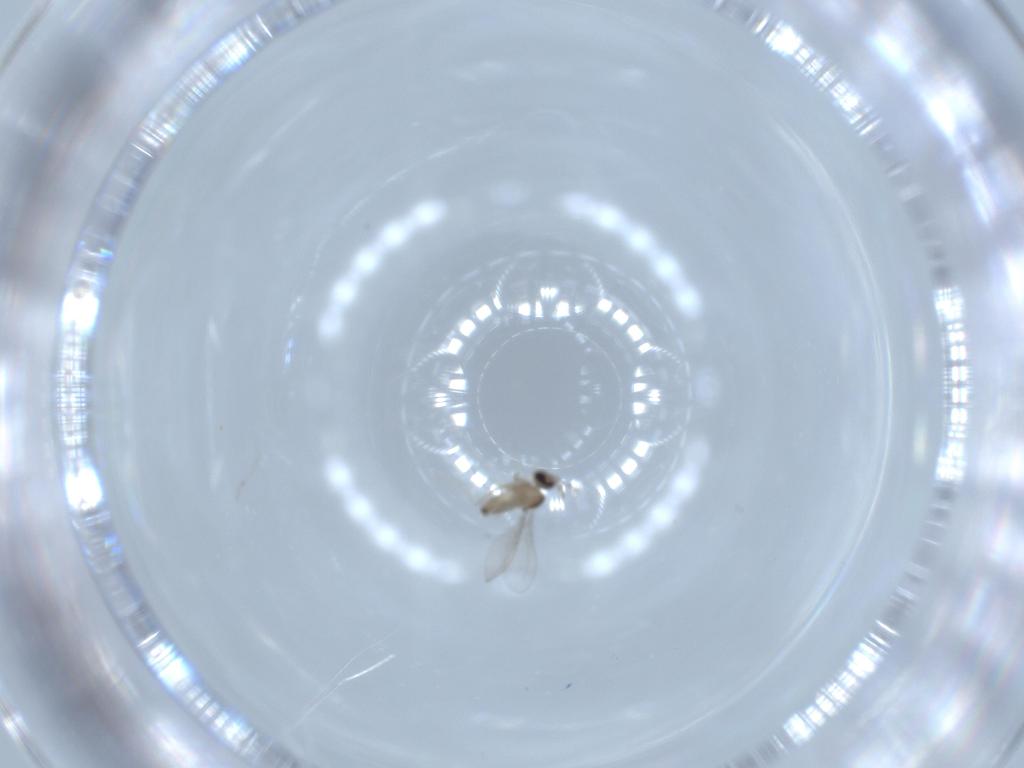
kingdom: Animalia
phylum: Arthropoda
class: Insecta
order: Diptera
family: Cecidomyiidae
